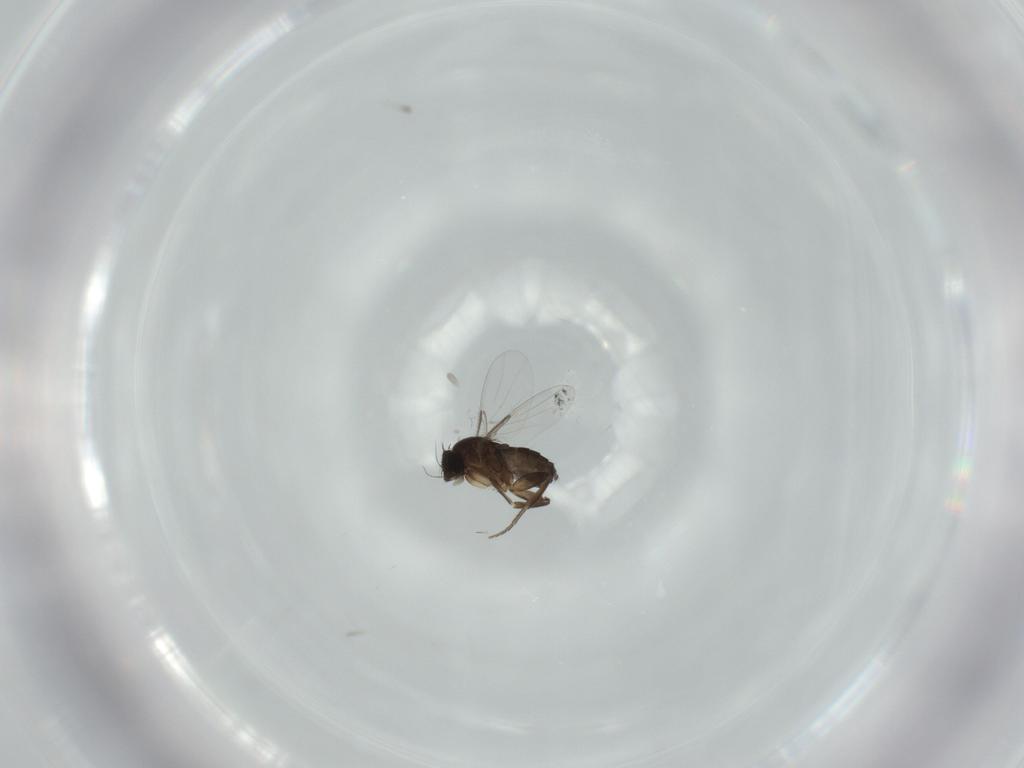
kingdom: Animalia
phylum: Arthropoda
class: Insecta
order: Diptera
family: Phoridae
